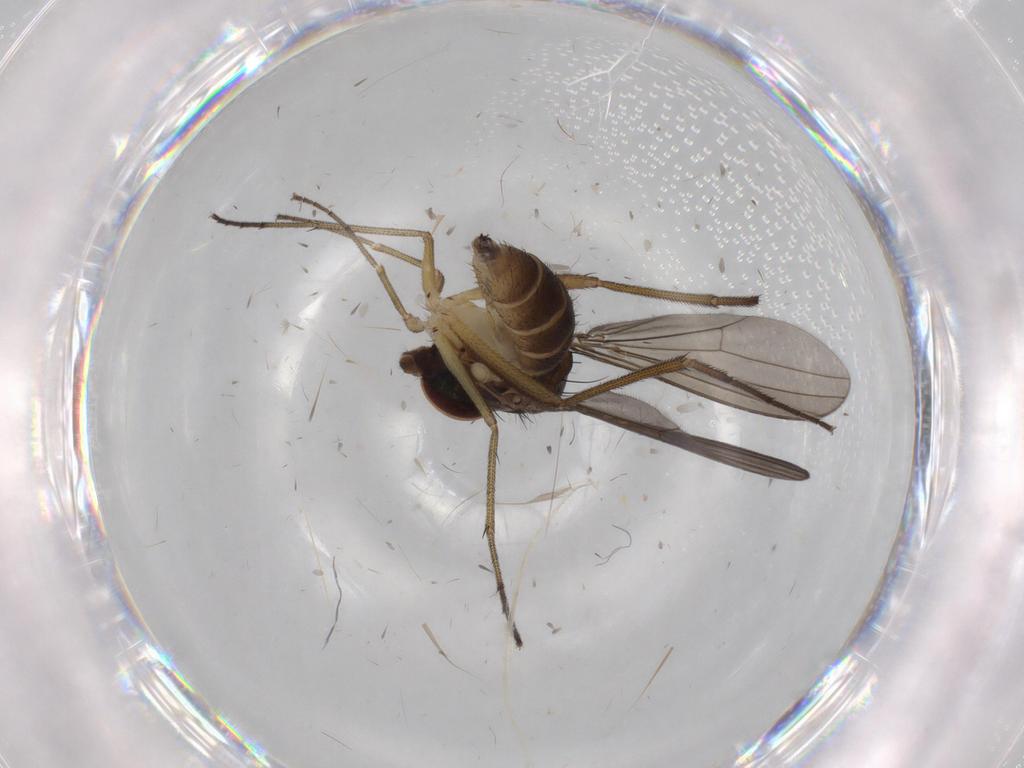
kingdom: Animalia
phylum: Arthropoda
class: Insecta
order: Diptera
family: Dolichopodidae
